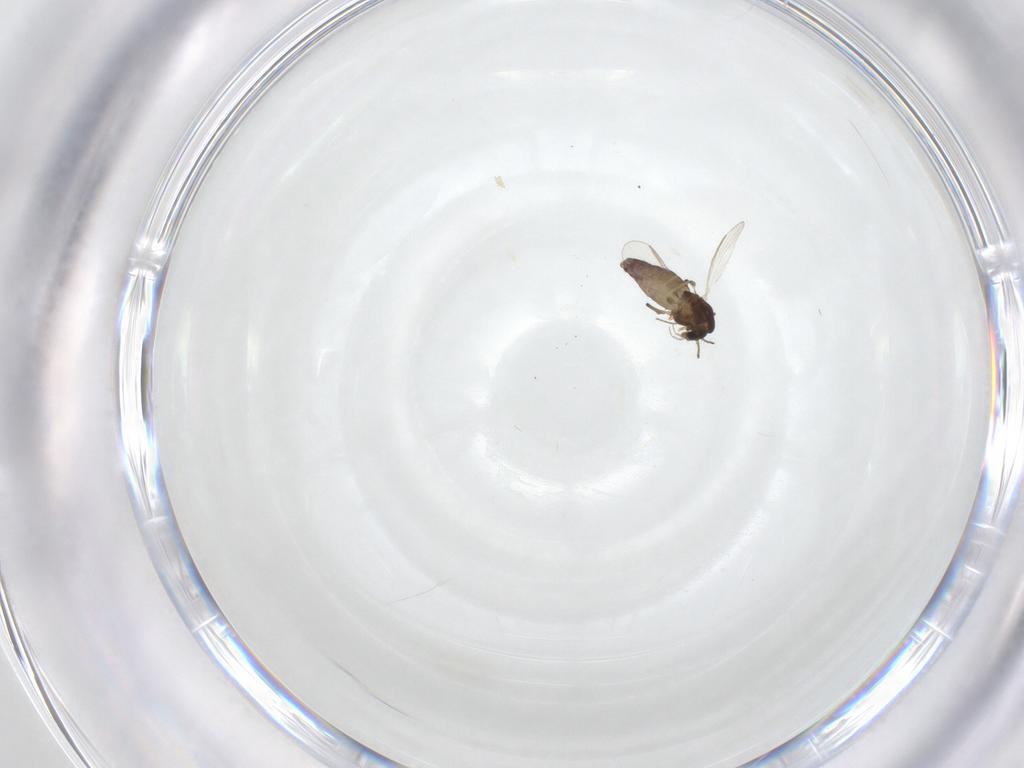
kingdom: Animalia
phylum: Arthropoda
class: Insecta
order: Diptera
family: Chironomidae
